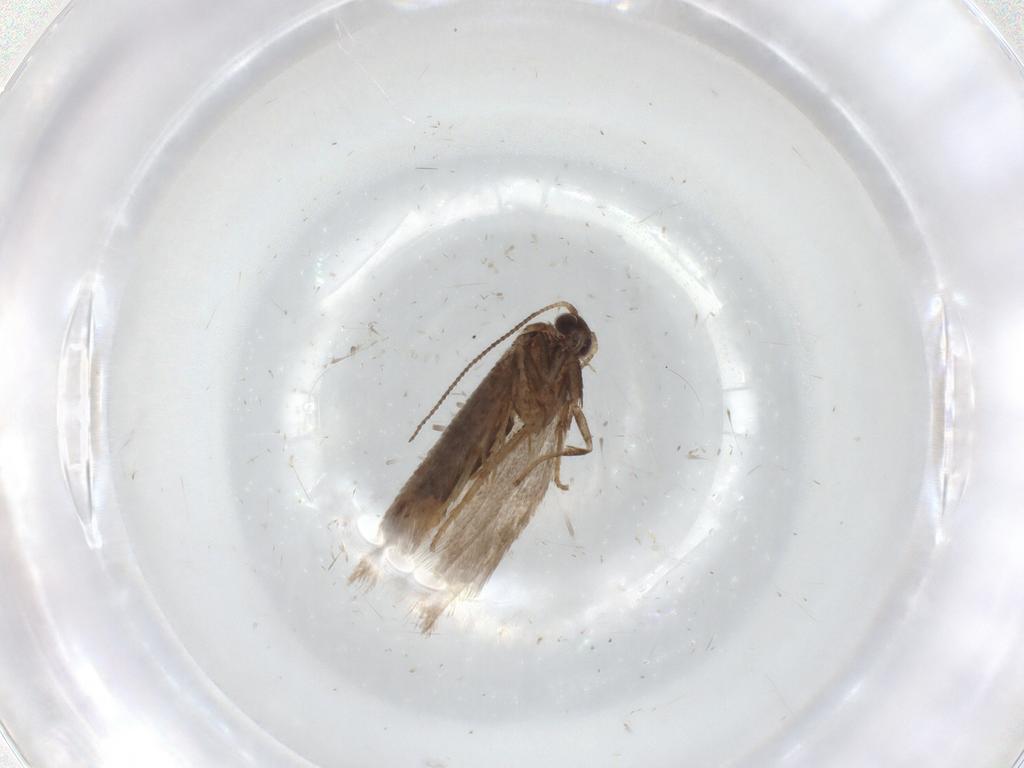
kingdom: Animalia
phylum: Arthropoda
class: Insecta
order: Lepidoptera
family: Nepticulidae
